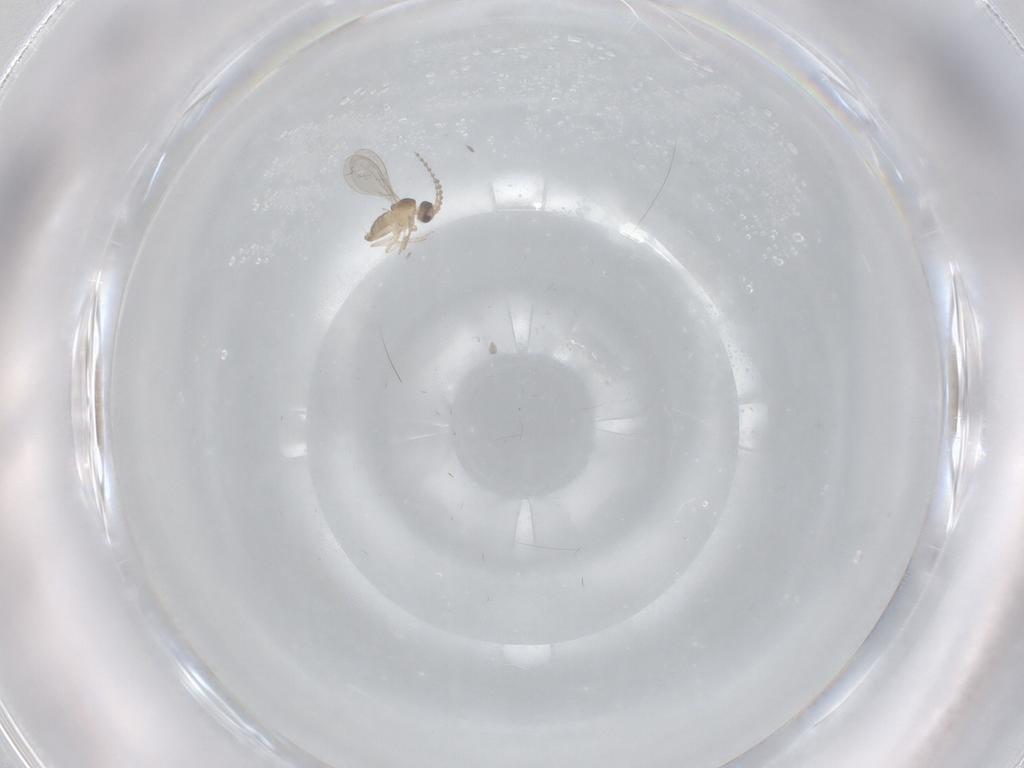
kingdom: Animalia
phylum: Arthropoda
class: Insecta
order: Diptera
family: Cecidomyiidae
